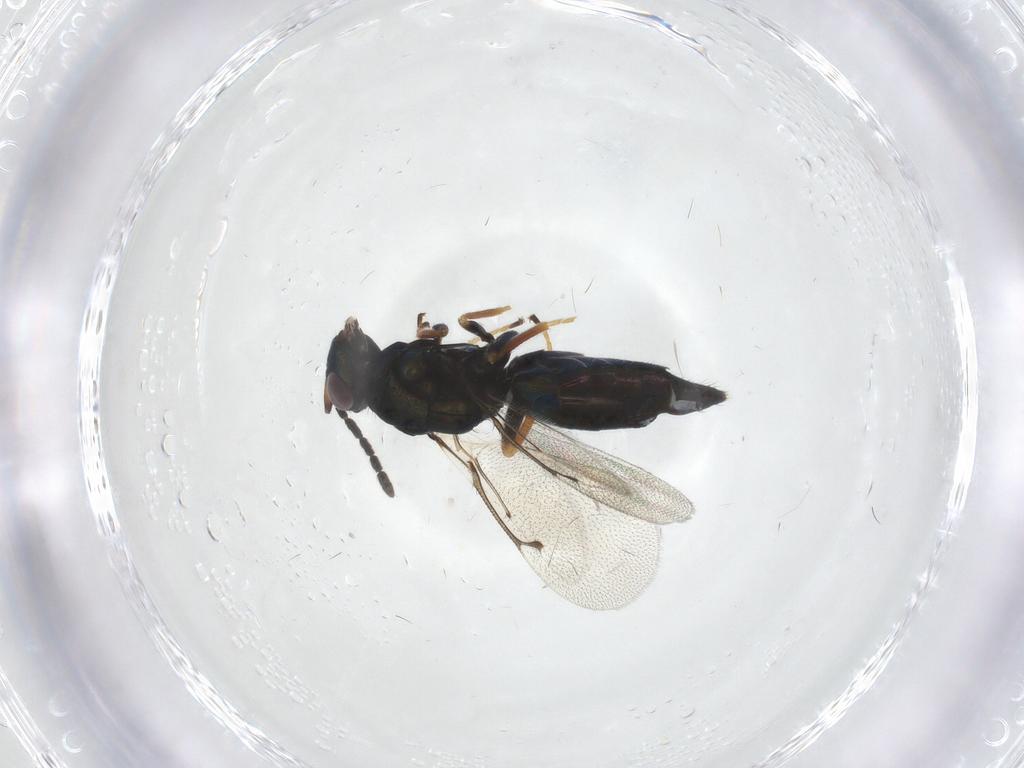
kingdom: Animalia
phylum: Arthropoda
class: Insecta
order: Hymenoptera
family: Eulophidae
